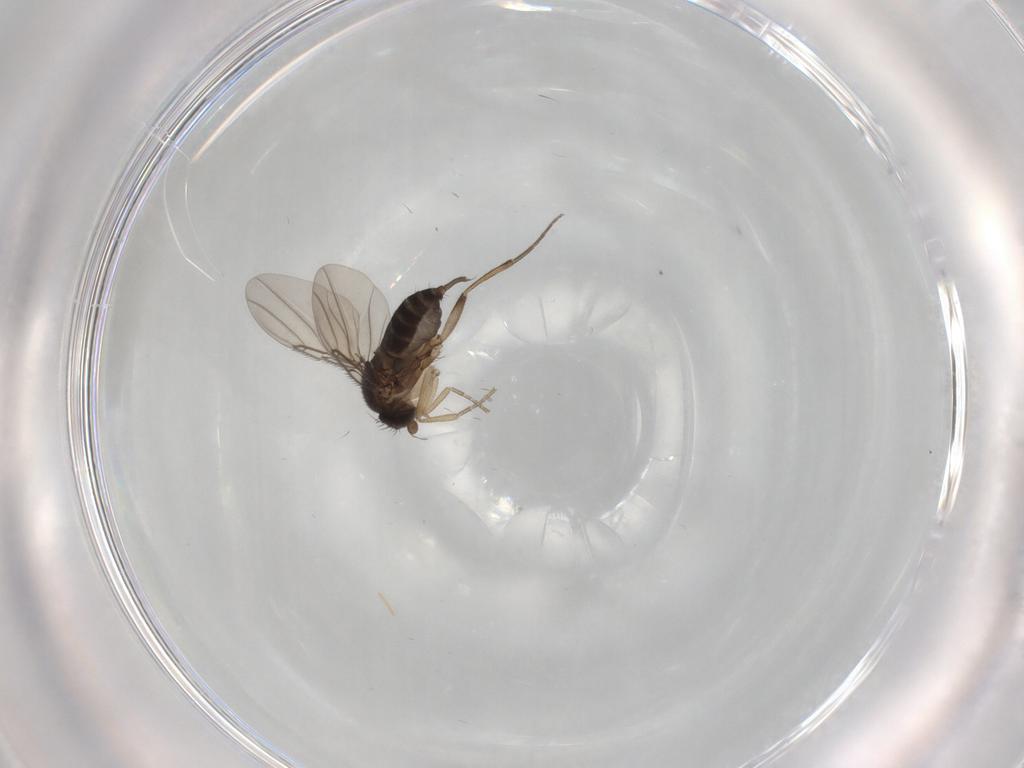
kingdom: Animalia
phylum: Arthropoda
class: Insecta
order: Diptera
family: Phoridae
